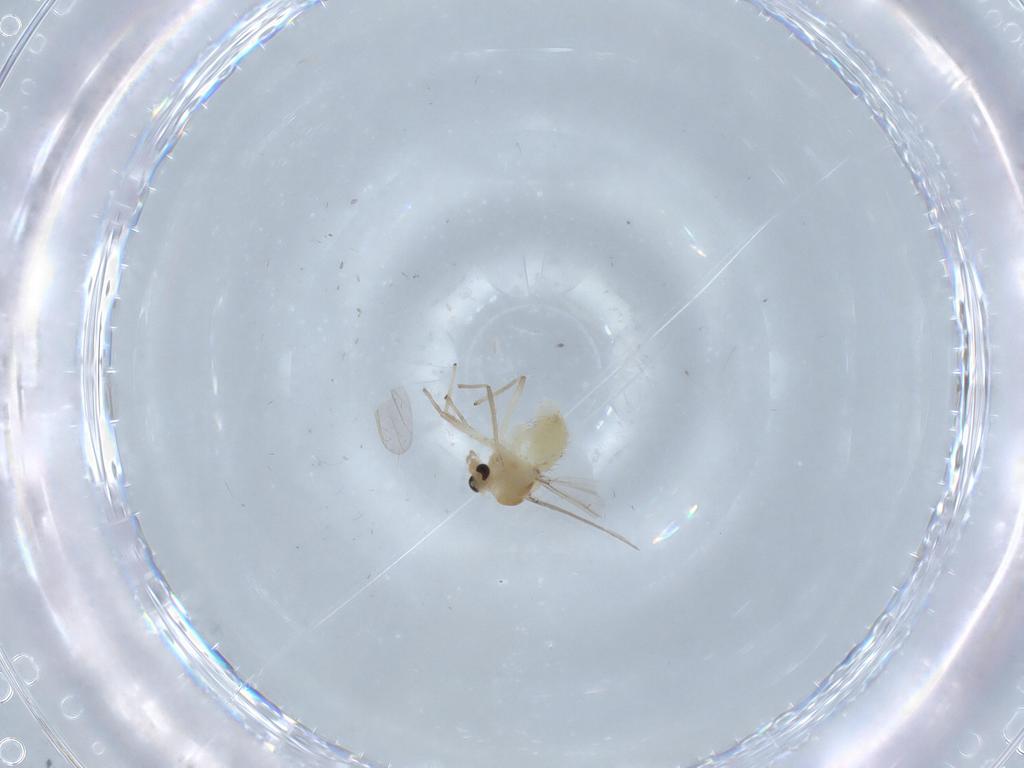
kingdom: Animalia
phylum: Arthropoda
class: Insecta
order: Diptera
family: Chironomidae
